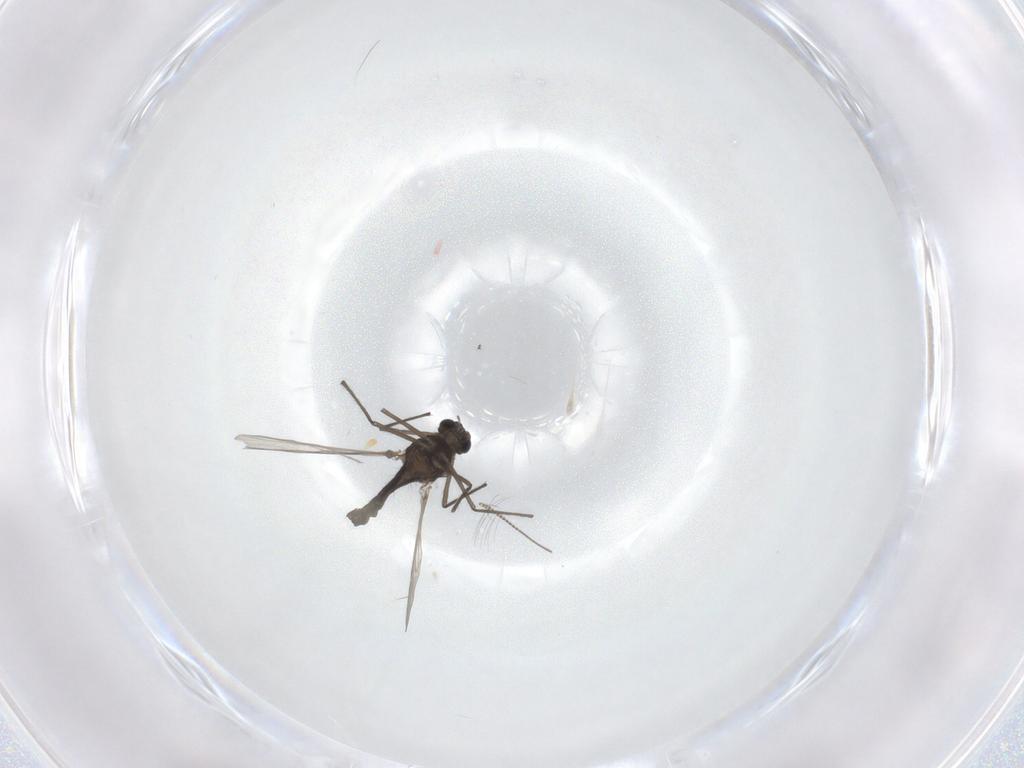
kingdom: Animalia
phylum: Arthropoda
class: Insecta
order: Diptera
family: Chironomidae
